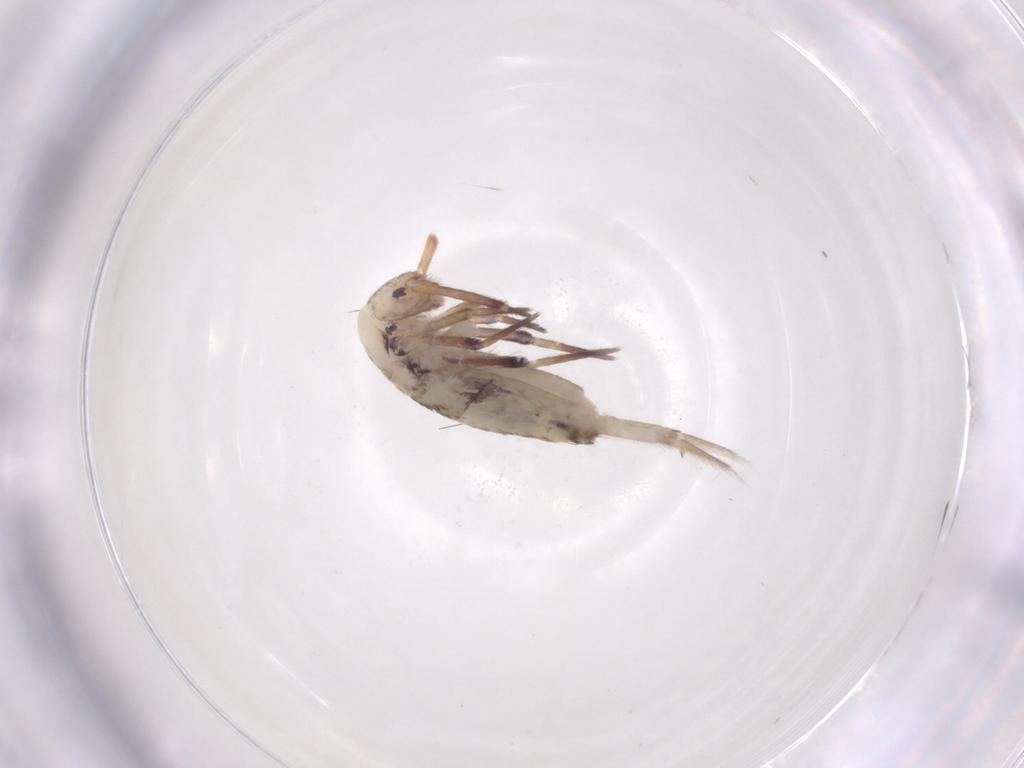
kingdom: Animalia
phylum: Arthropoda
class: Collembola
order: Entomobryomorpha
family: Entomobryidae
